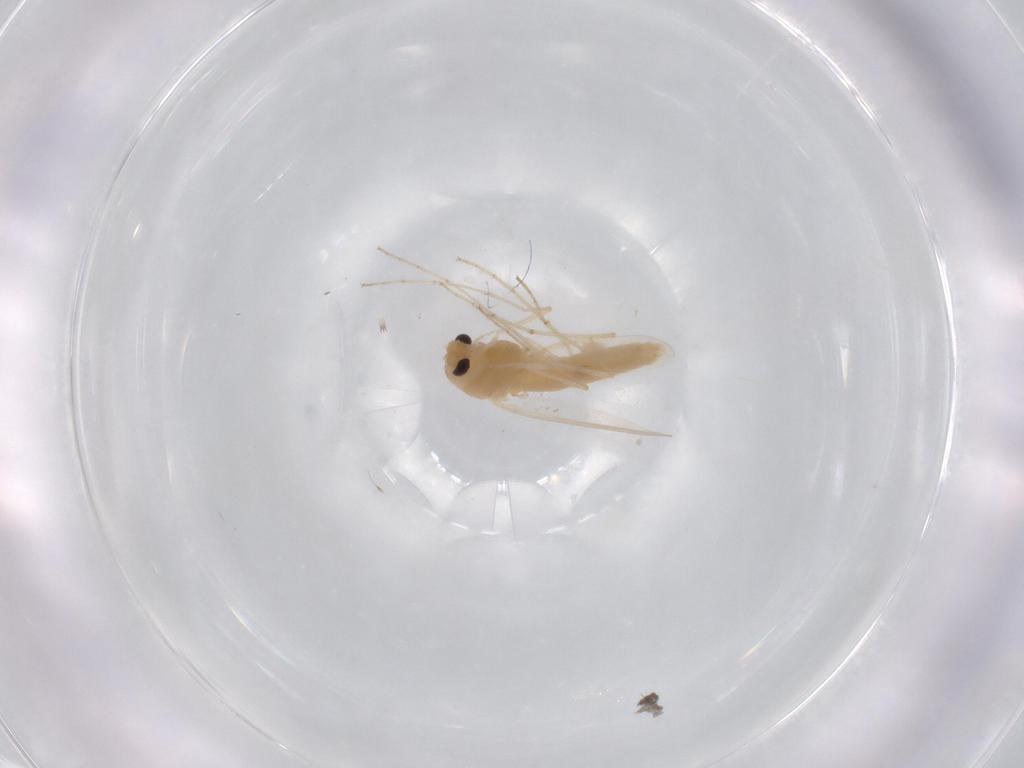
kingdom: Animalia
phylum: Arthropoda
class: Insecta
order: Diptera
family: Chironomidae
